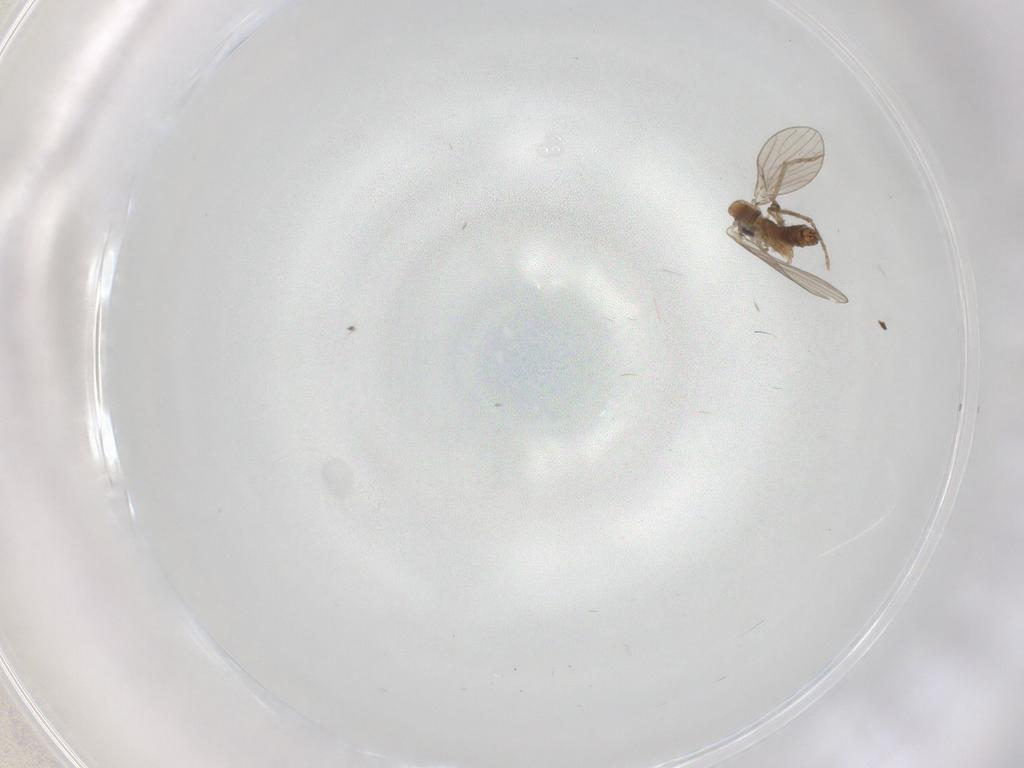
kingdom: Animalia
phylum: Arthropoda
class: Insecta
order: Diptera
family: Psychodidae
